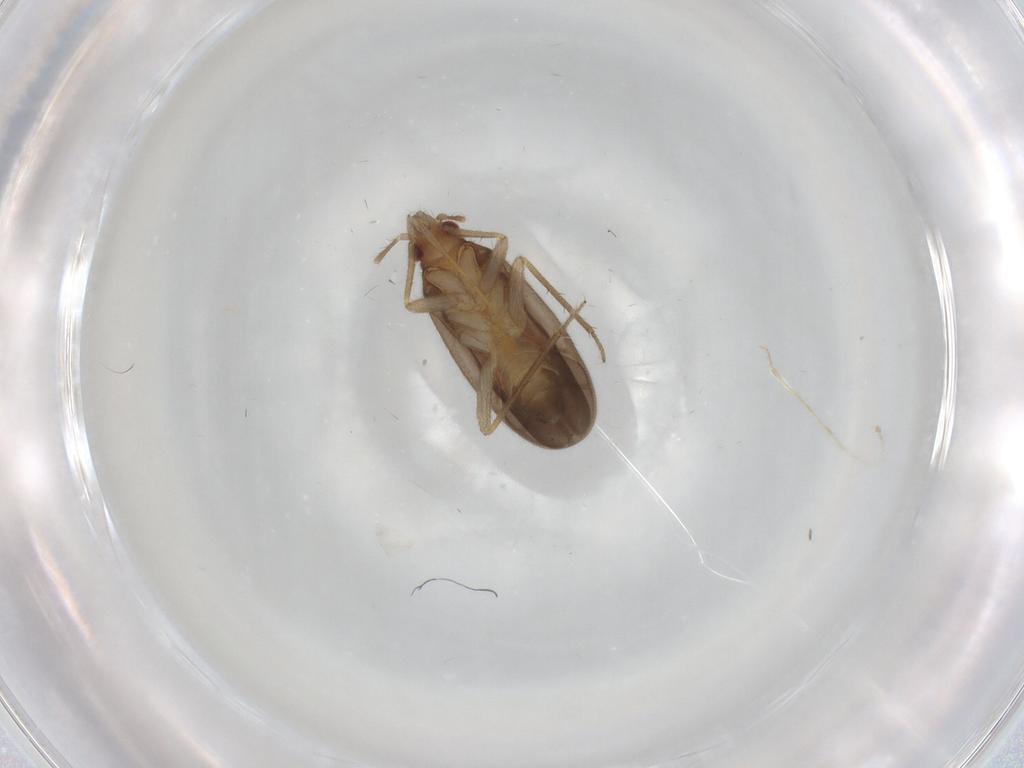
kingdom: Animalia
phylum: Arthropoda
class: Insecta
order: Hemiptera
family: Ceratocombidae
